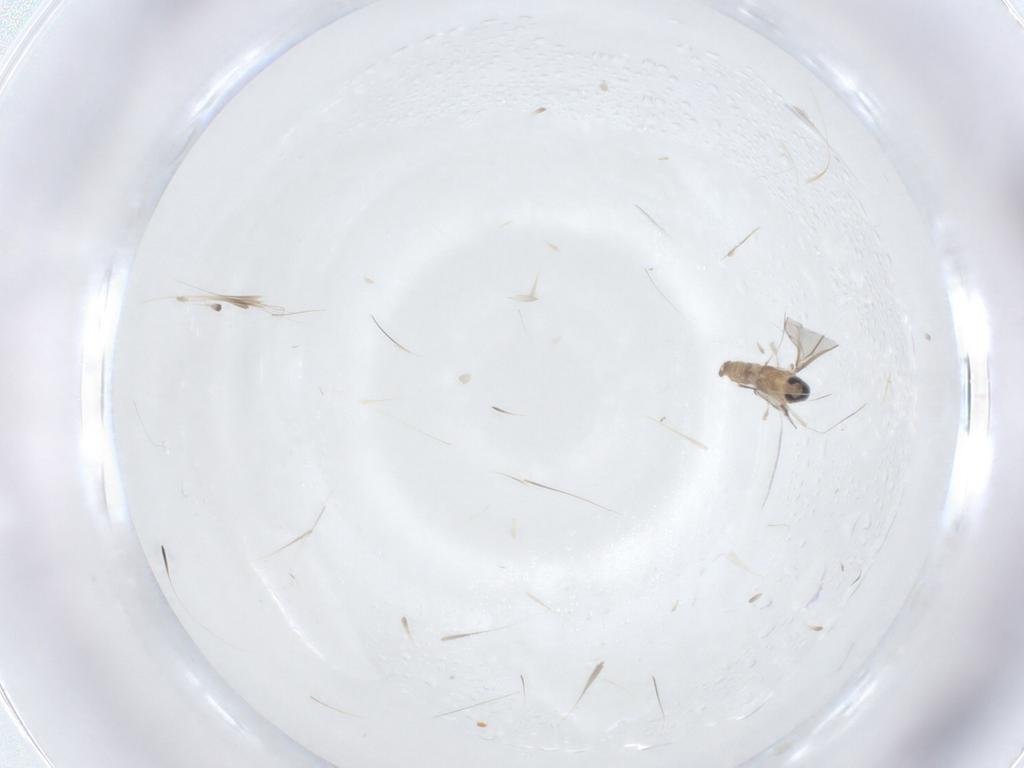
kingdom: Animalia
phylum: Arthropoda
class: Insecta
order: Diptera
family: Cecidomyiidae
